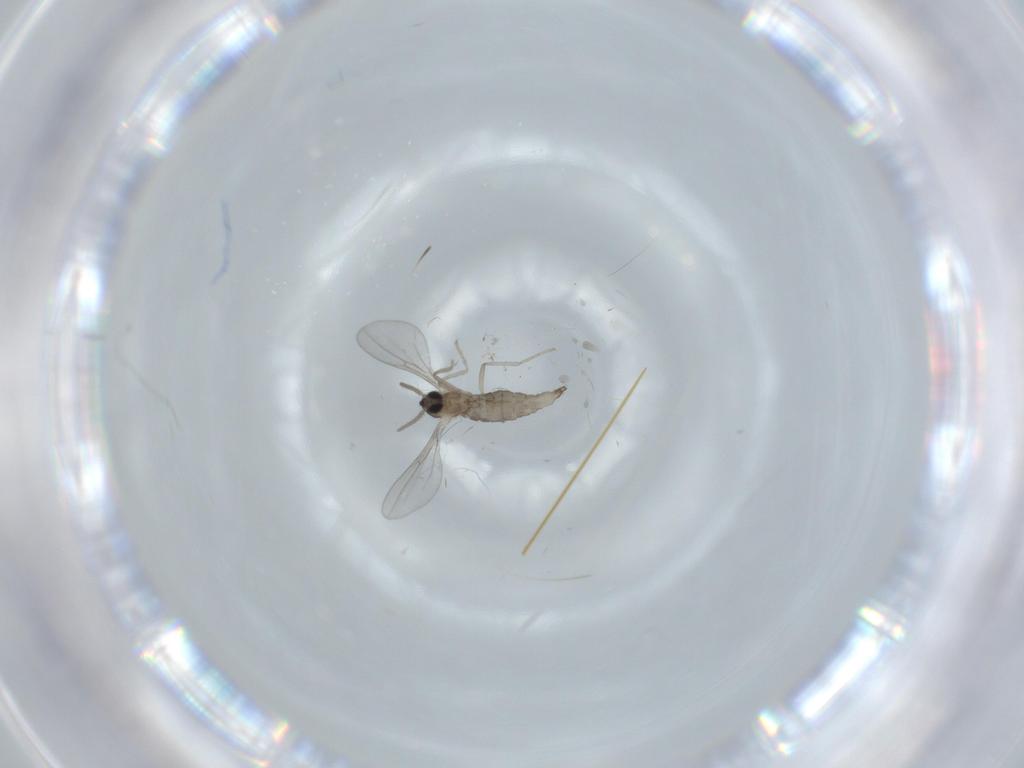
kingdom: Animalia
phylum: Arthropoda
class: Insecta
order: Diptera
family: Cecidomyiidae
